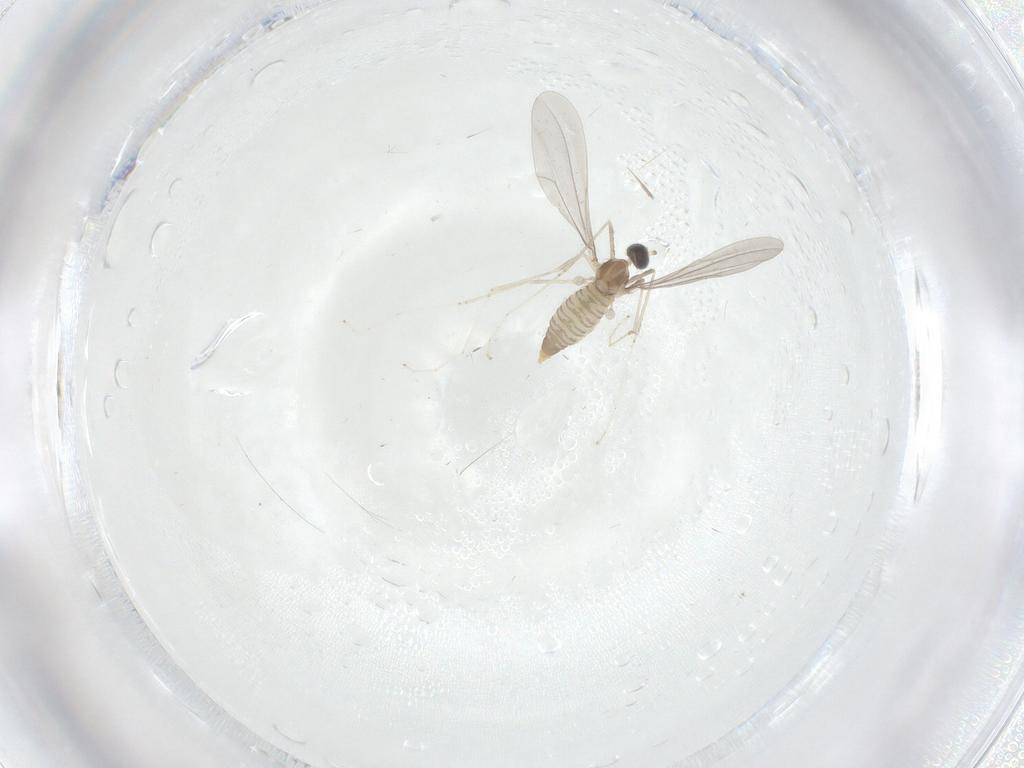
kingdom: Animalia
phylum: Arthropoda
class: Insecta
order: Diptera
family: Cecidomyiidae
